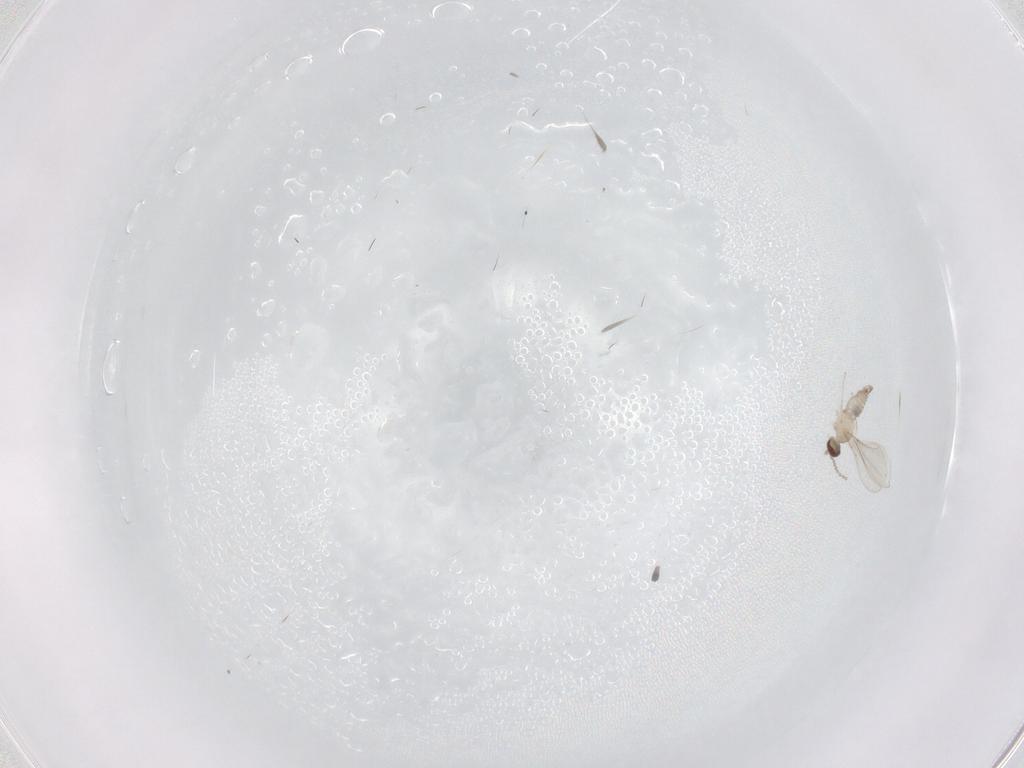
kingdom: Animalia
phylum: Arthropoda
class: Insecta
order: Diptera
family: Cecidomyiidae
